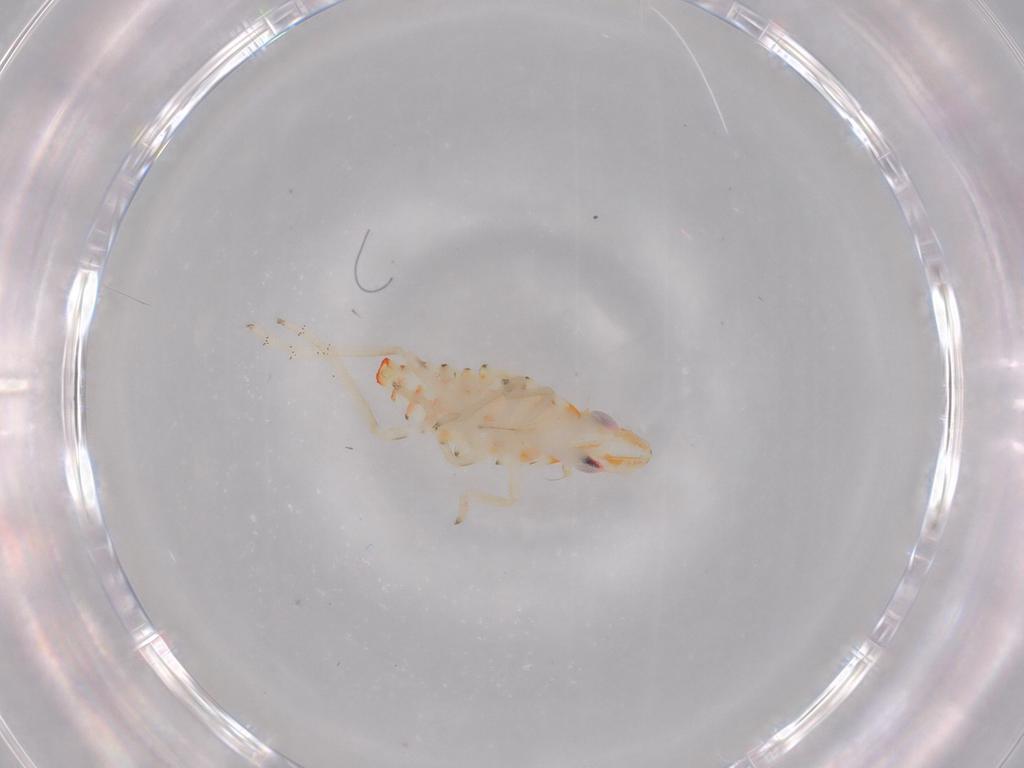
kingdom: Animalia
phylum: Arthropoda
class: Insecta
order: Hemiptera
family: Tropiduchidae
